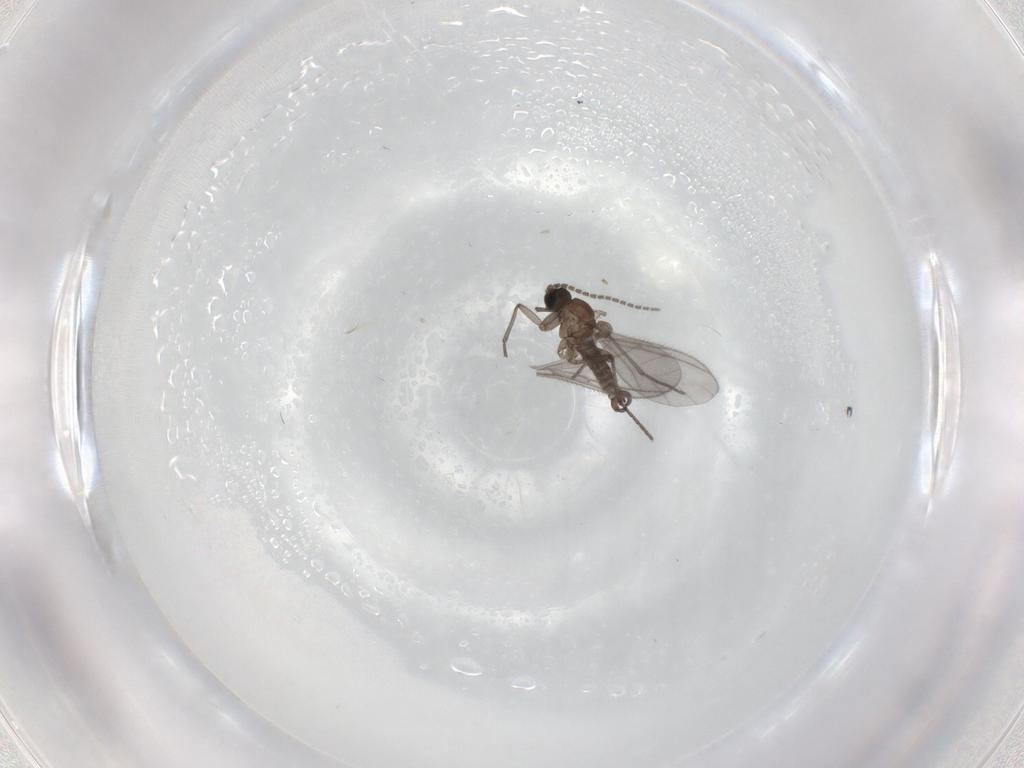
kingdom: Animalia
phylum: Arthropoda
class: Insecta
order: Diptera
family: Cecidomyiidae
